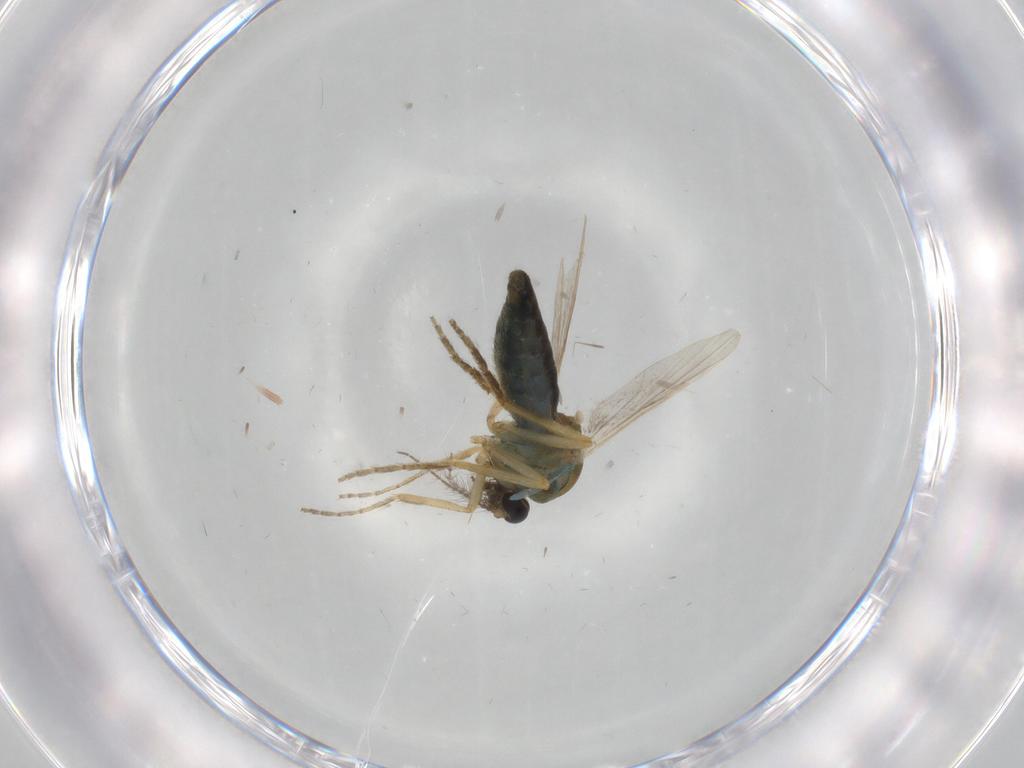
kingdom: Animalia
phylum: Arthropoda
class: Insecta
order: Diptera
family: Ceratopogonidae
